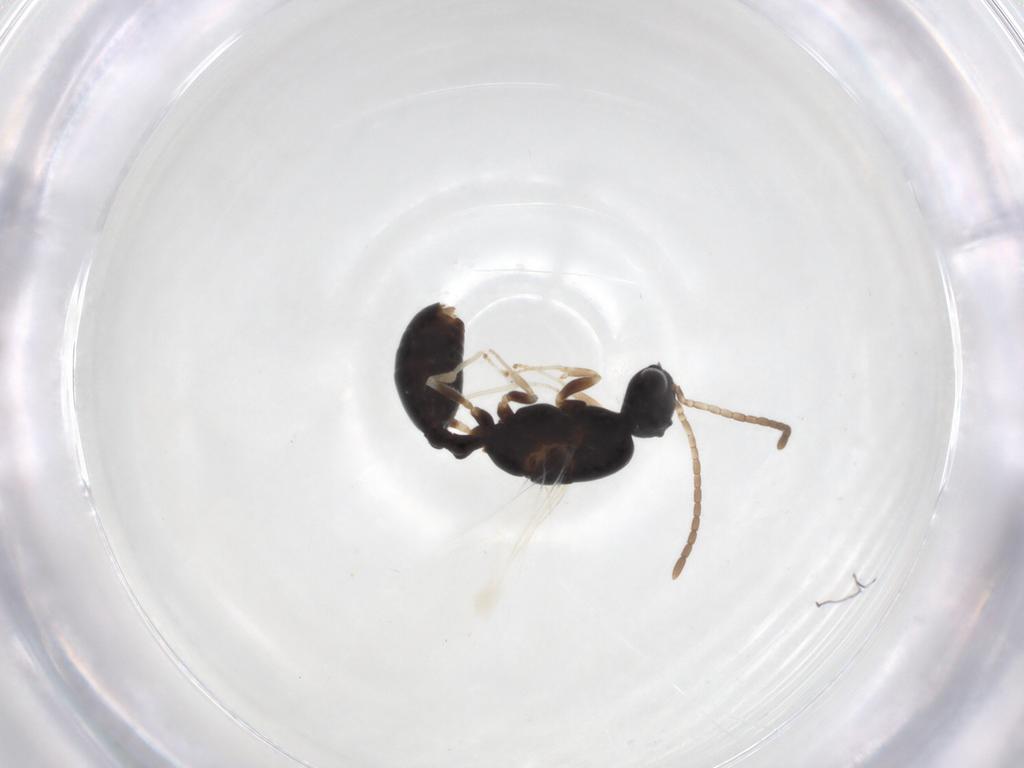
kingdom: Animalia
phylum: Arthropoda
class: Insecta
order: Hymenoptera
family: Formicidae
